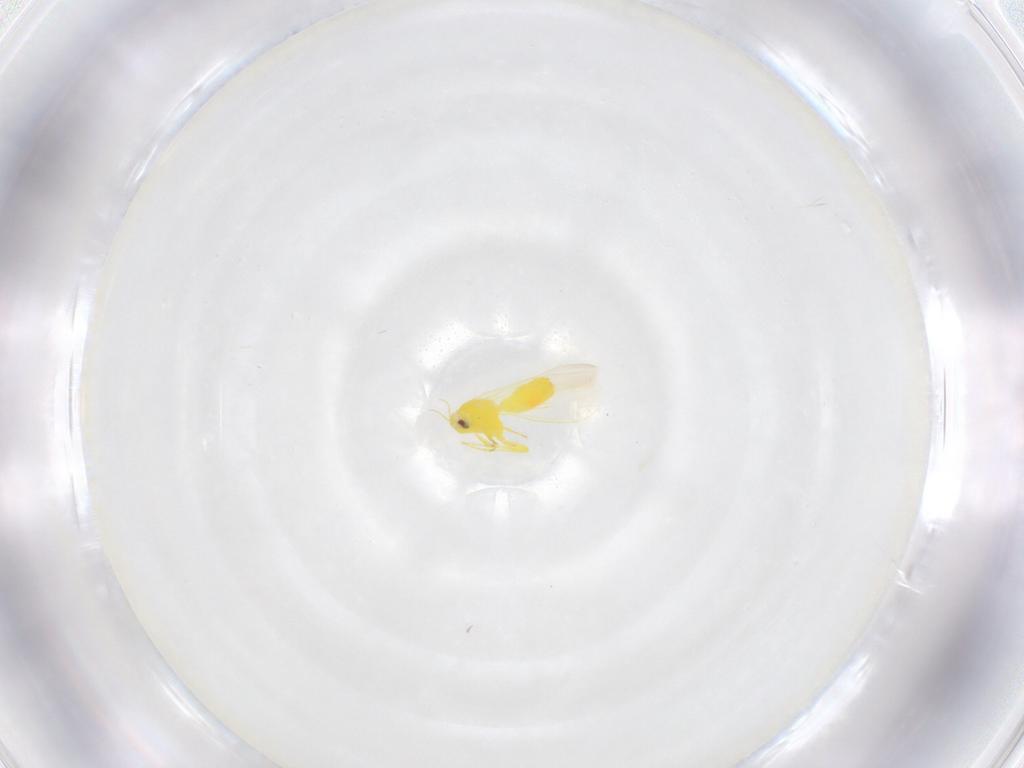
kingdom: Animalia
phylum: Arthropoda
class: Insecta
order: Hemiptera
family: Aleyrodidae
